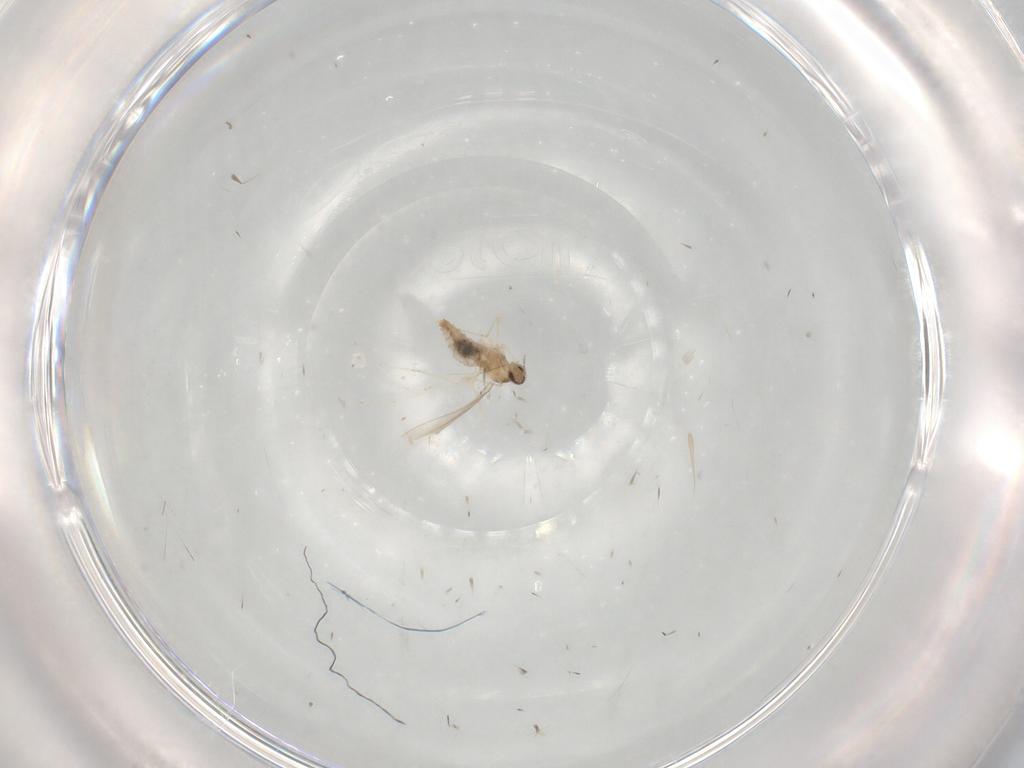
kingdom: Animalia
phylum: Arthropoda
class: Insecta
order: Diptera
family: Cecidomyiidae
